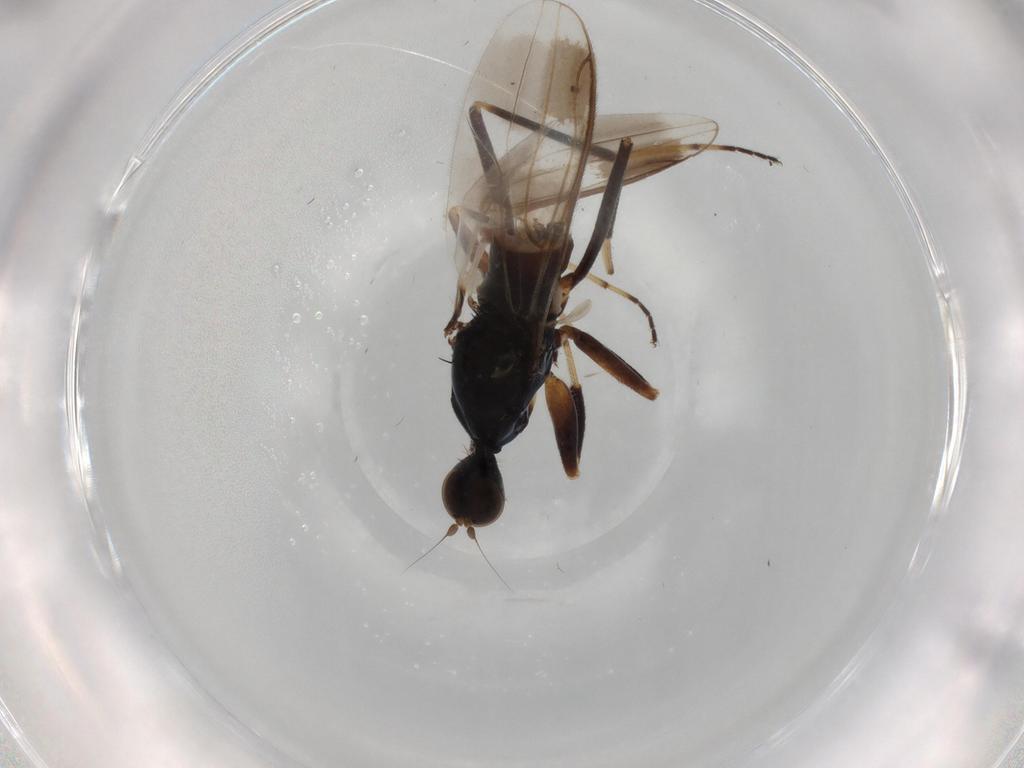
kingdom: Animalia
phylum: Arthropoda
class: Insecta
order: Diptera
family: Hybotidae
